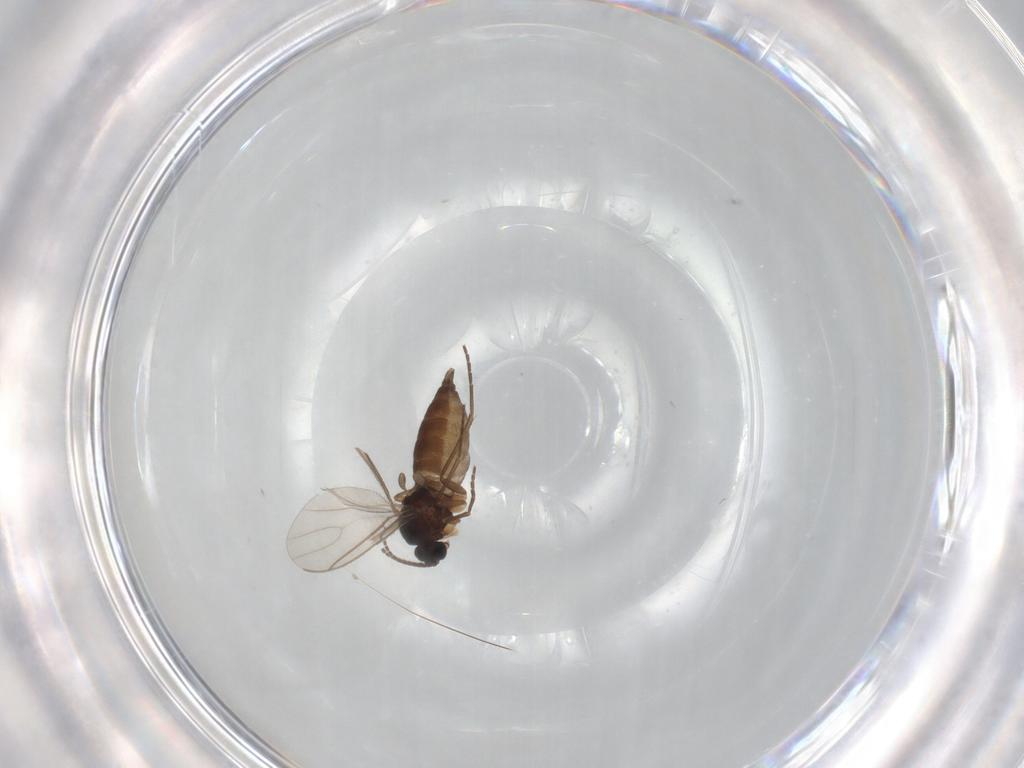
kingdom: Animalia
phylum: Arthropoda
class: Insecta
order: Diptera
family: Sciaridae
